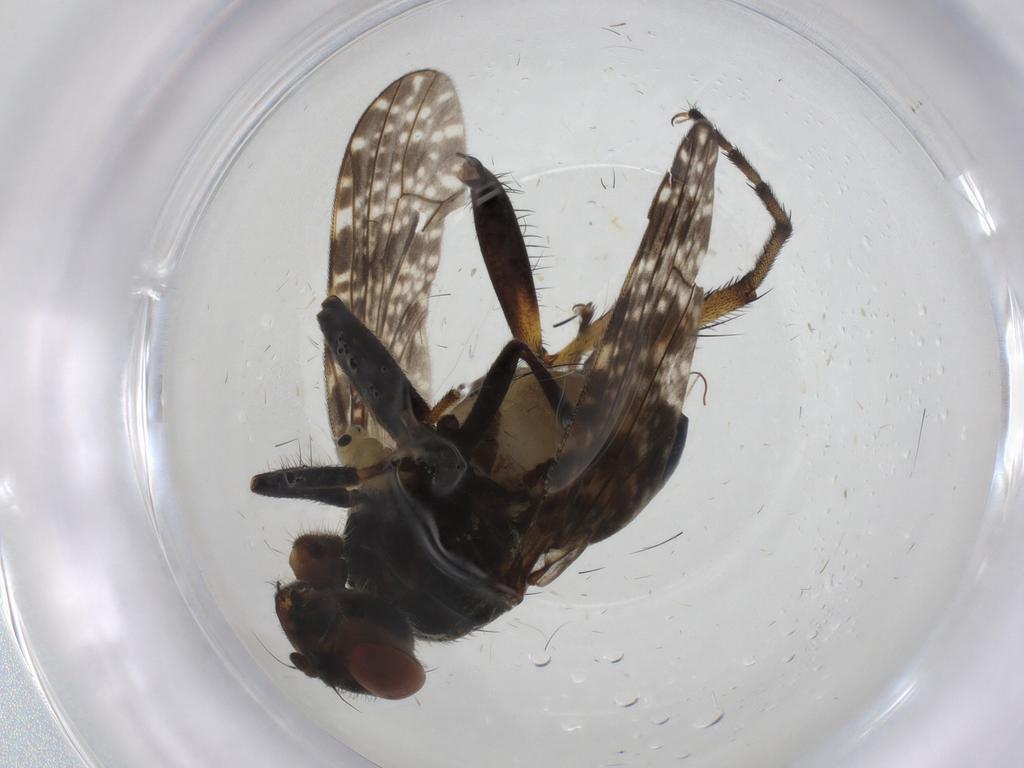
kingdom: Animalia
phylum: Arthropoda
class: Insecta
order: Diptera
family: Platystomatidae
